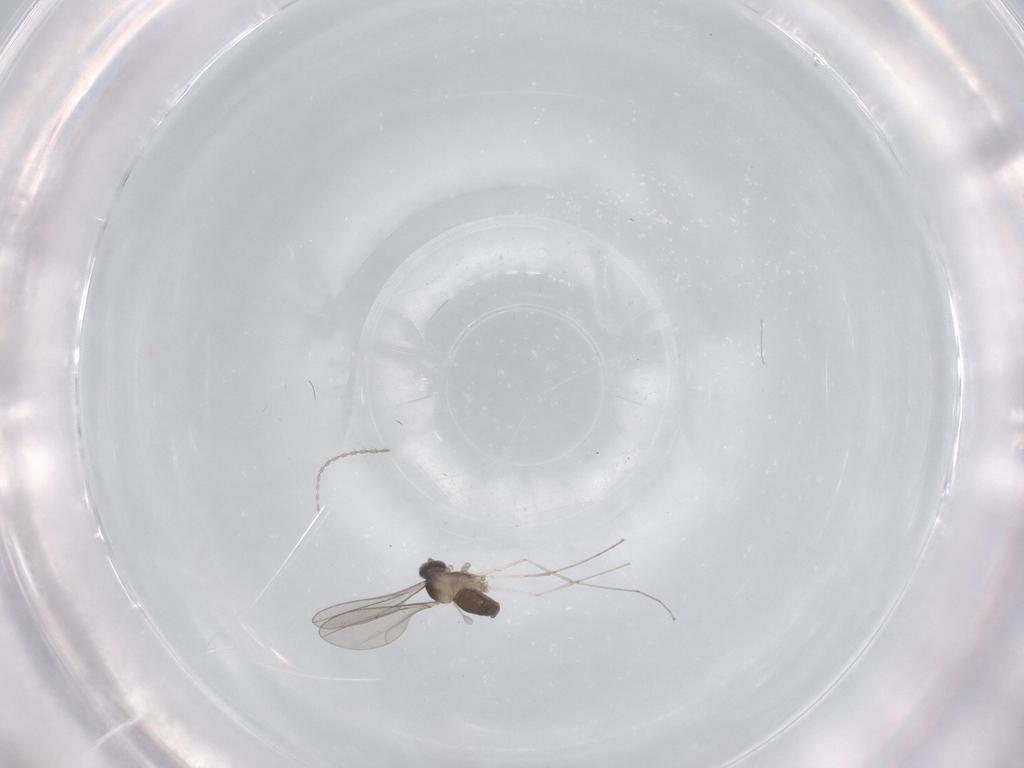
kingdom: Animalia
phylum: Arthropoda
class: Insecta
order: Diptera
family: Cecidomyiidae
